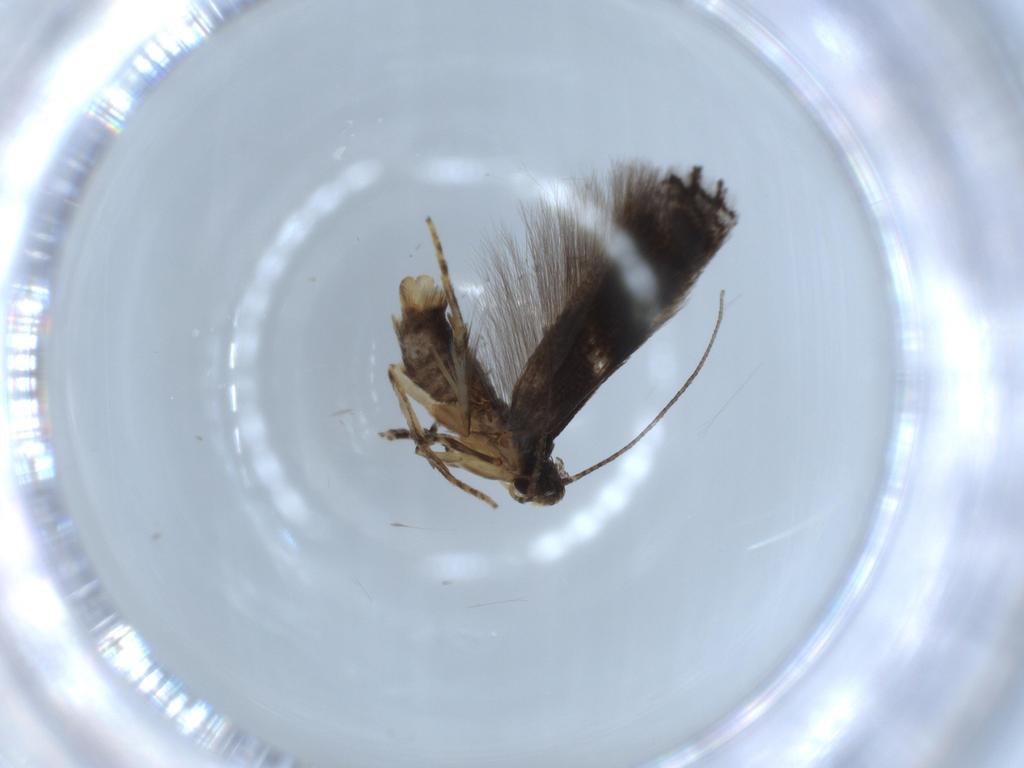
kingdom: Animalia
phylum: Arthropoda
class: Insecta
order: Lepidoptera
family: Cosmopterigidae
